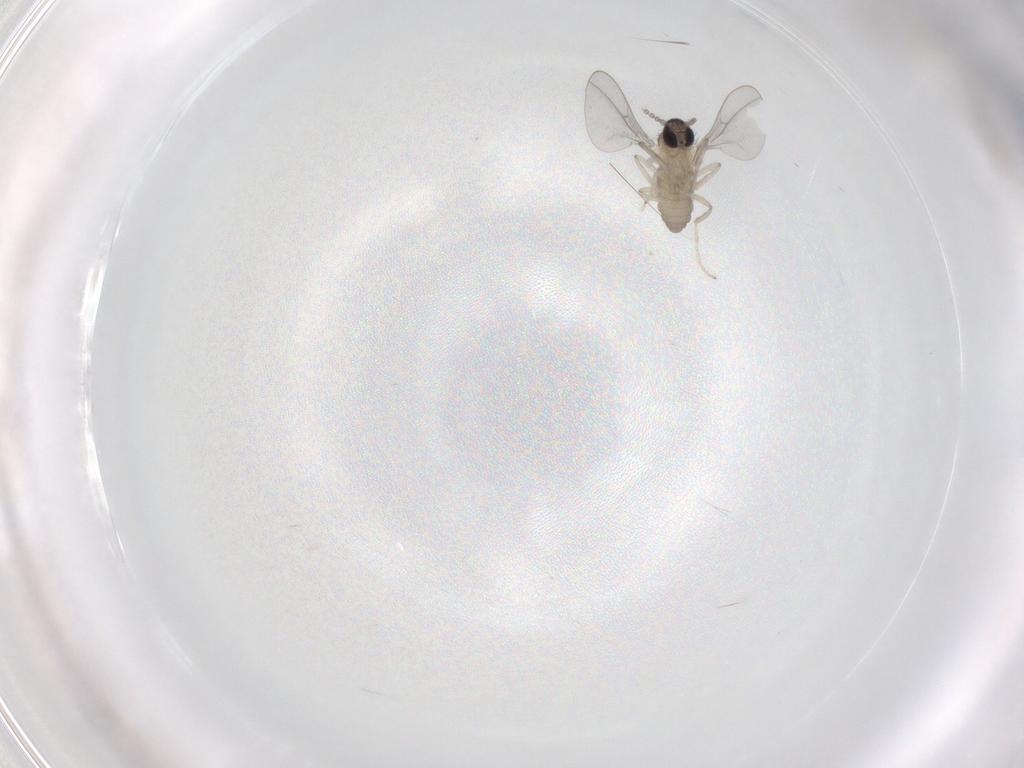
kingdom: Animalia
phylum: Arthropoda
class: Insecta
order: Diptera
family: Cecidomyiidae
